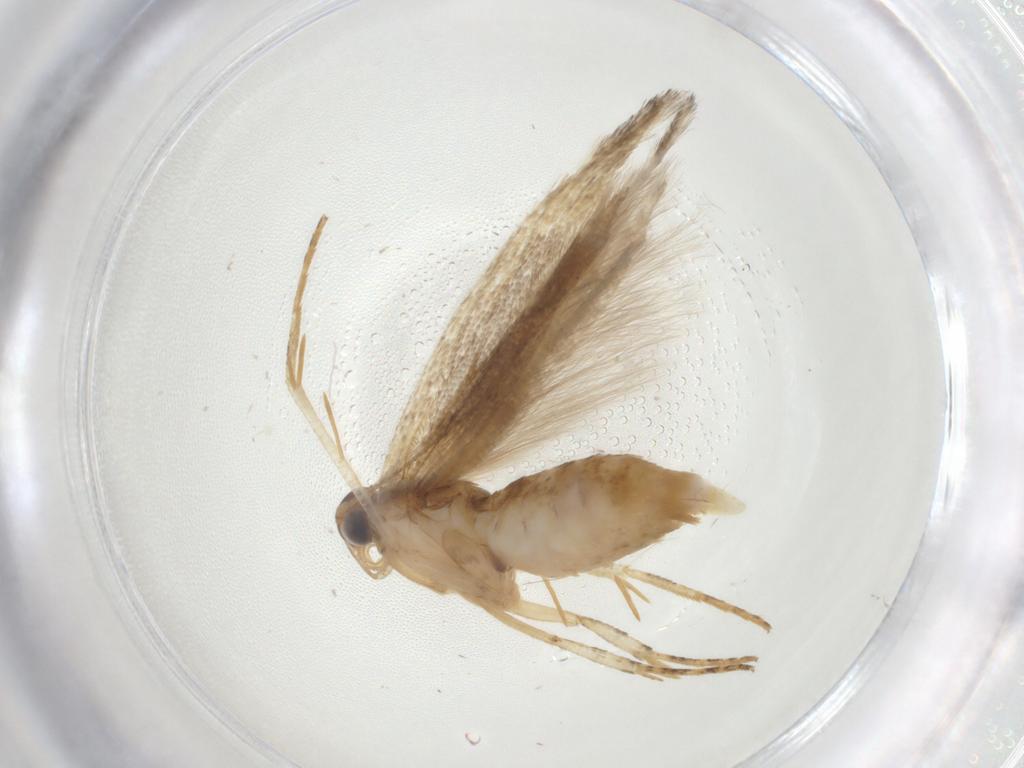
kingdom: Animalia
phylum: Arthropoda
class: Insecta
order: Lepidoptera
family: Gelechiidae
